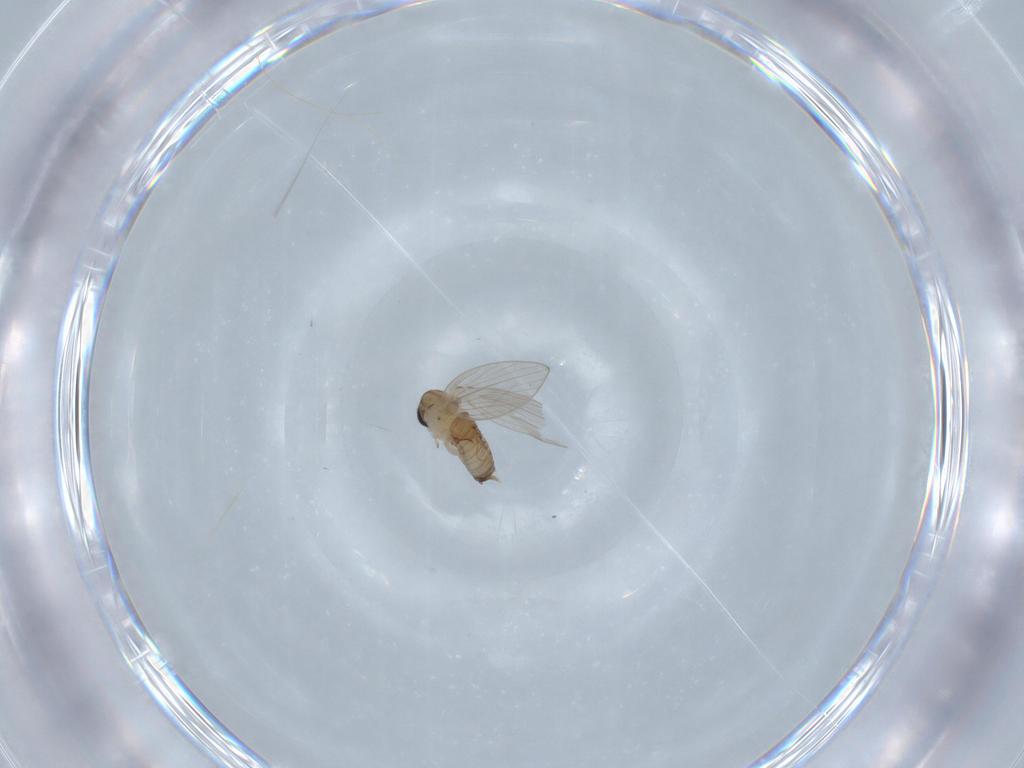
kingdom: Animalia
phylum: Arthropoda
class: Insecta
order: Diptera
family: Psychodidae
